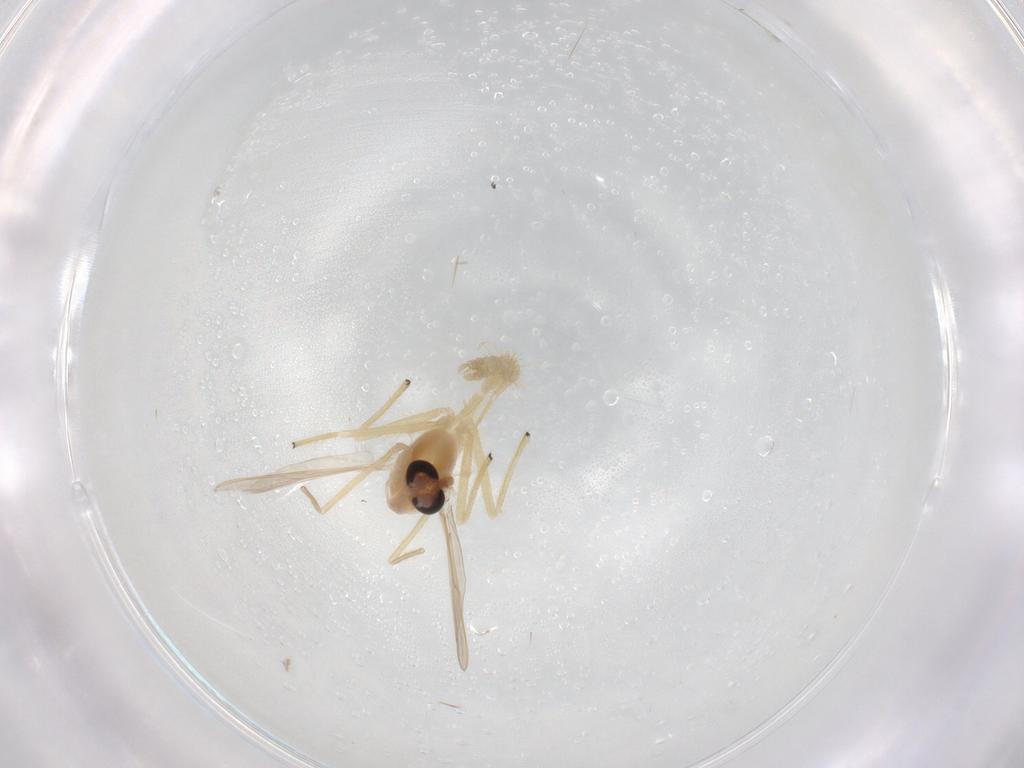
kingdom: Animalia
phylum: Arthropoda
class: Insecta
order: Diptera
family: Chironomidae
